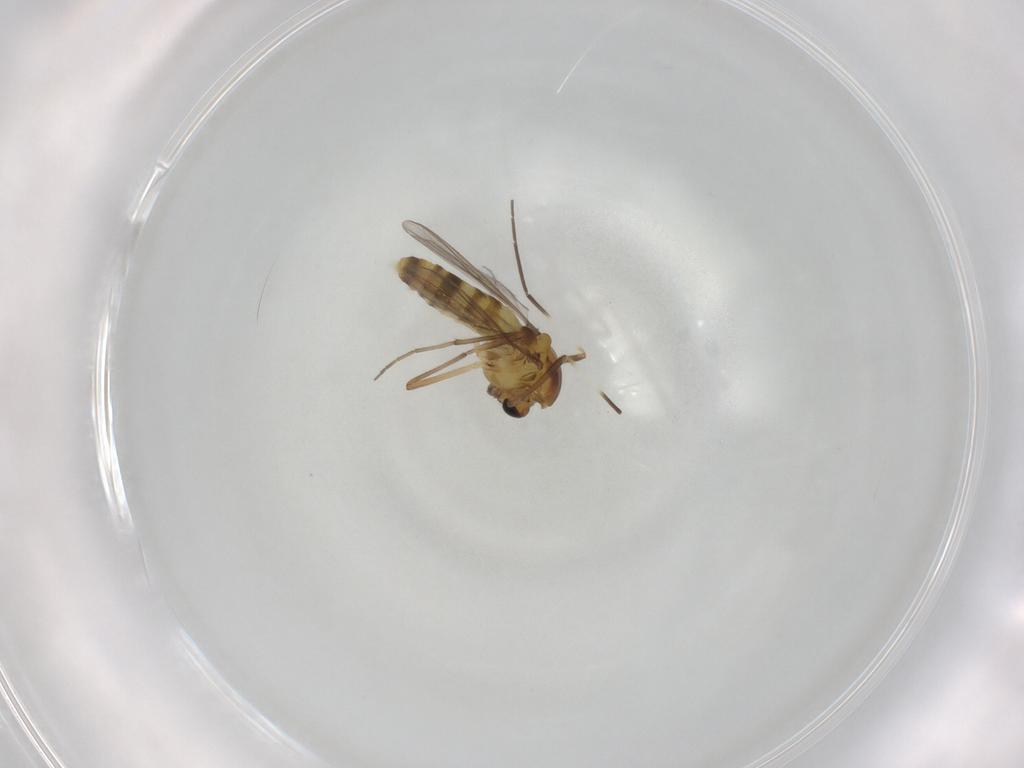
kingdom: Animalia
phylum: Arthropoda
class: Insecta
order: Diptera
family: Chironomidae
